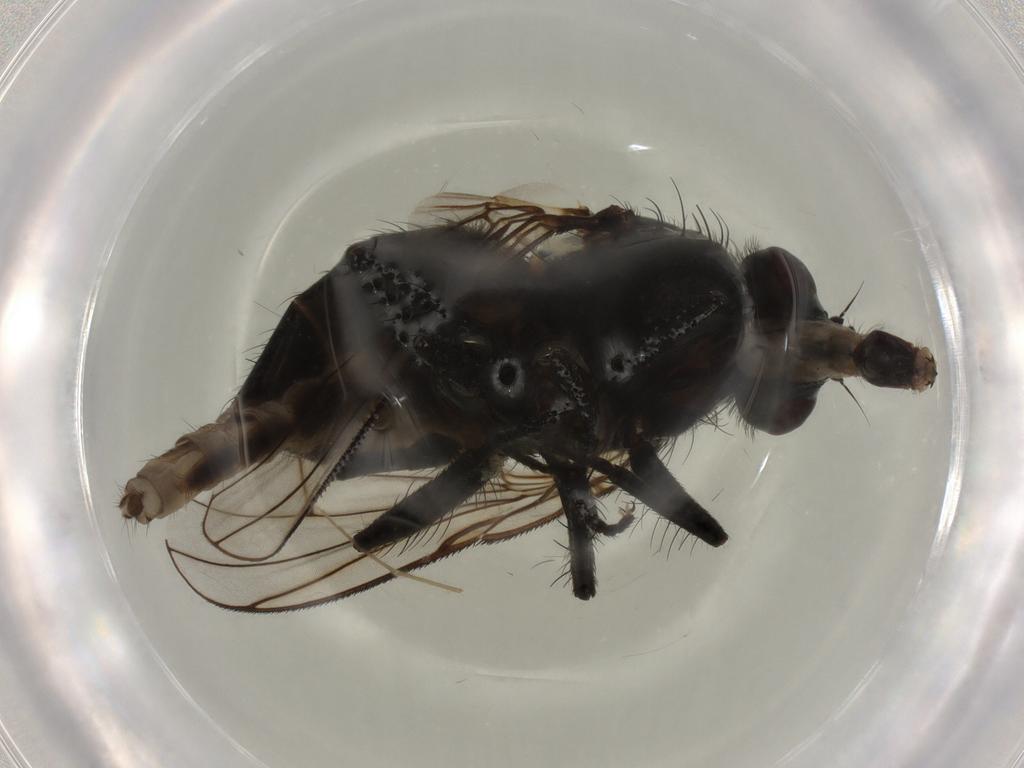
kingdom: Animalia
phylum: Arthropoda
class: Insecta
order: Diptera
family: Muscidae
